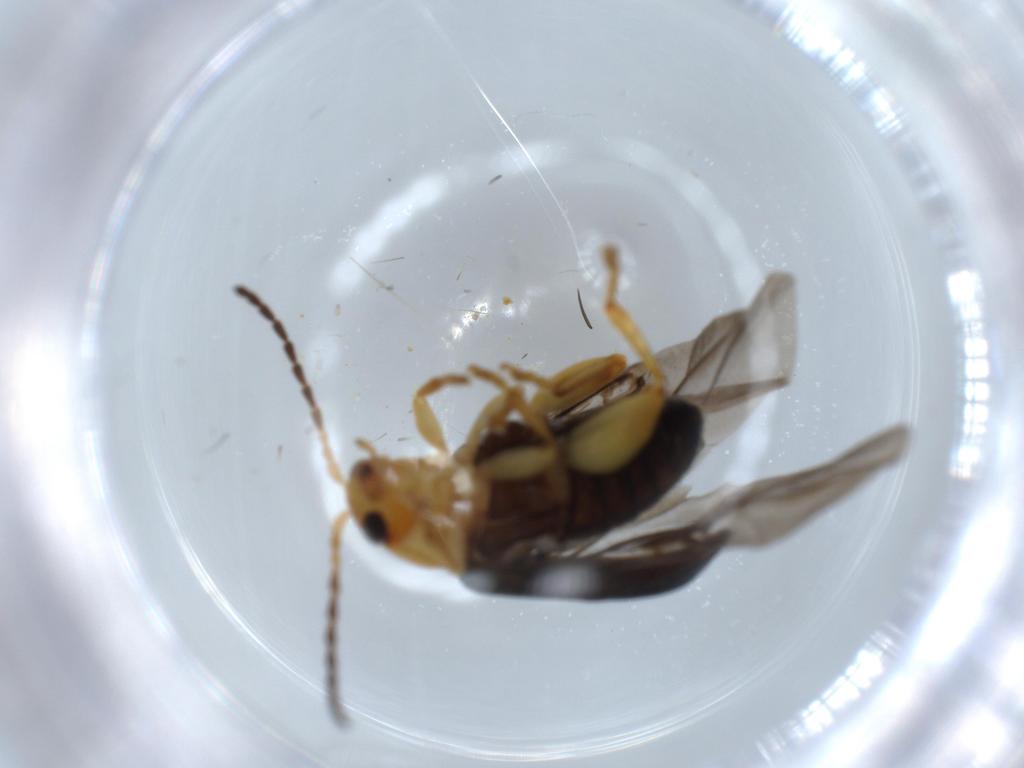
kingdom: Animalia
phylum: Arthropoda
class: Insecta
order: Coleoptera
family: Chrysomelidae
